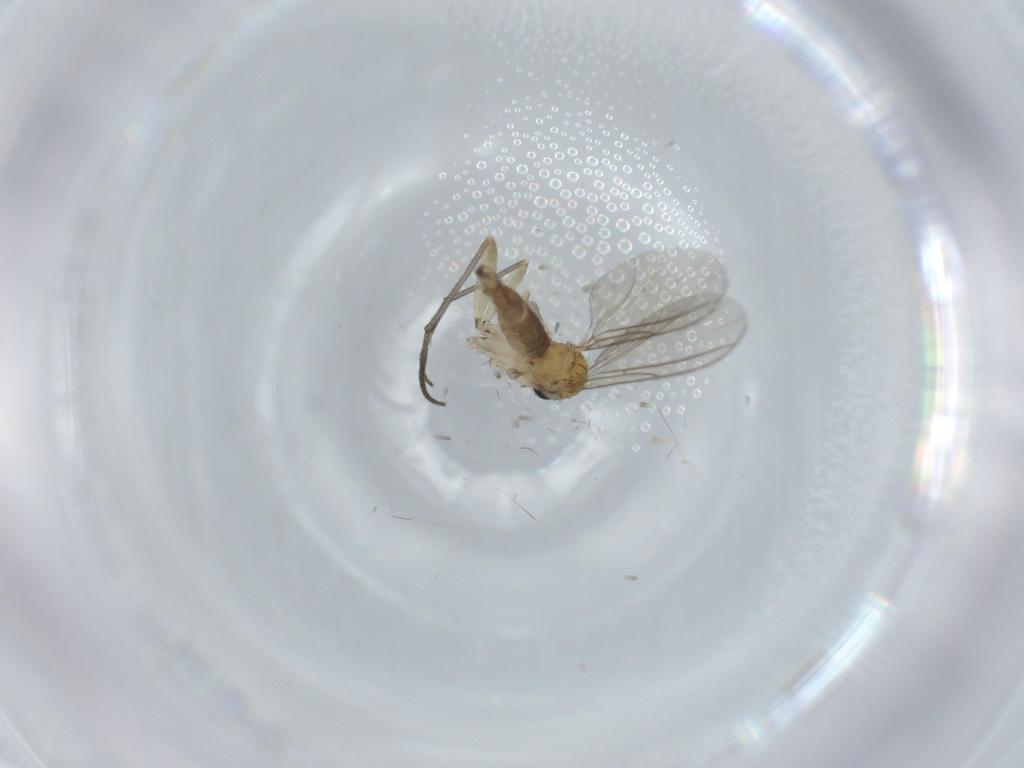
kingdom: Animalia
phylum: Arthropoda
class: Insecta
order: Diptera
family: Sciaridae
